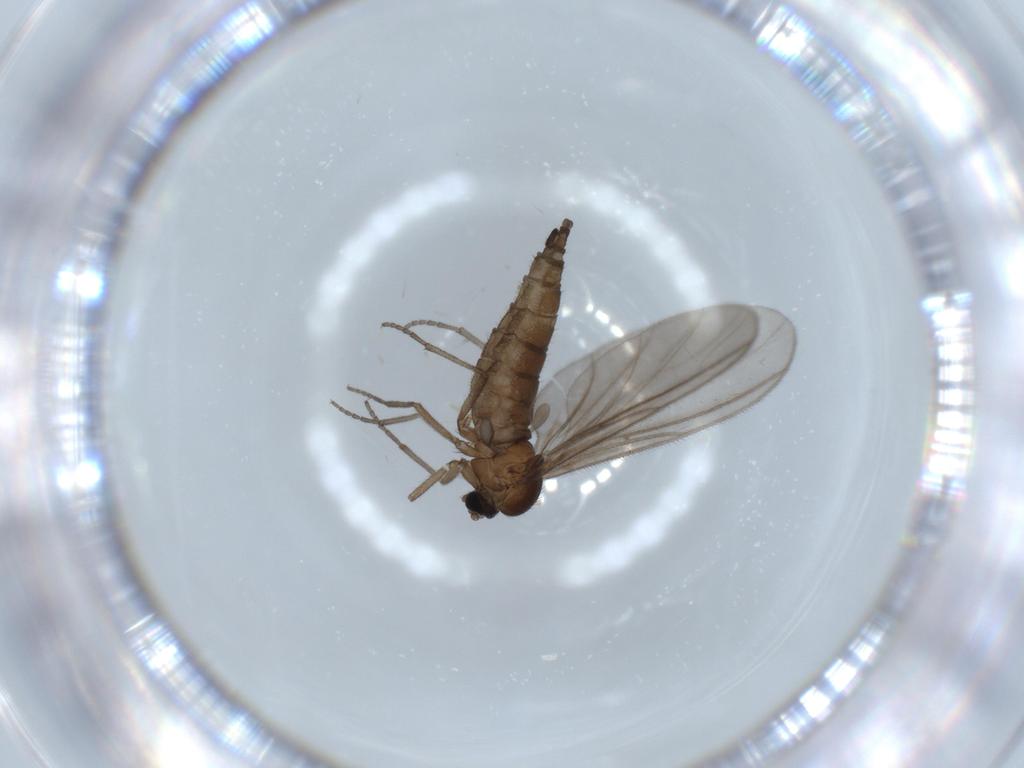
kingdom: Animalia
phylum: Arthropoda
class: Insecta
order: Diptera
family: Sciaridae
